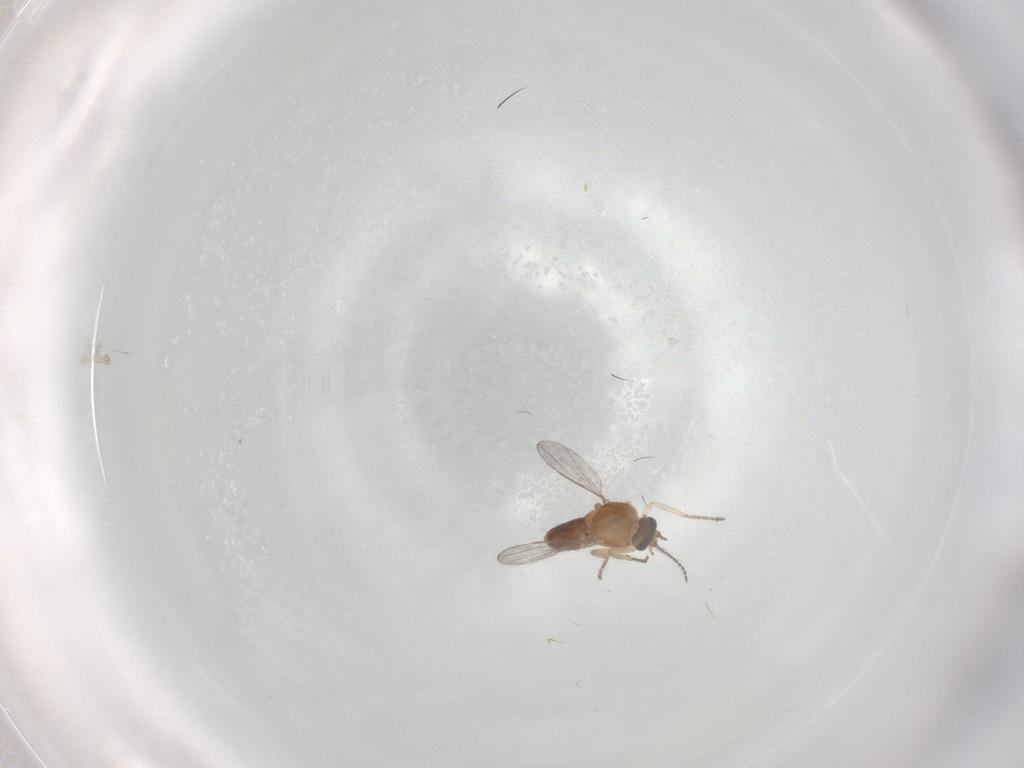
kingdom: Animalia
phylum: Arthropoda
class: Insecta
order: Diptera
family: Ceratopogonidae
